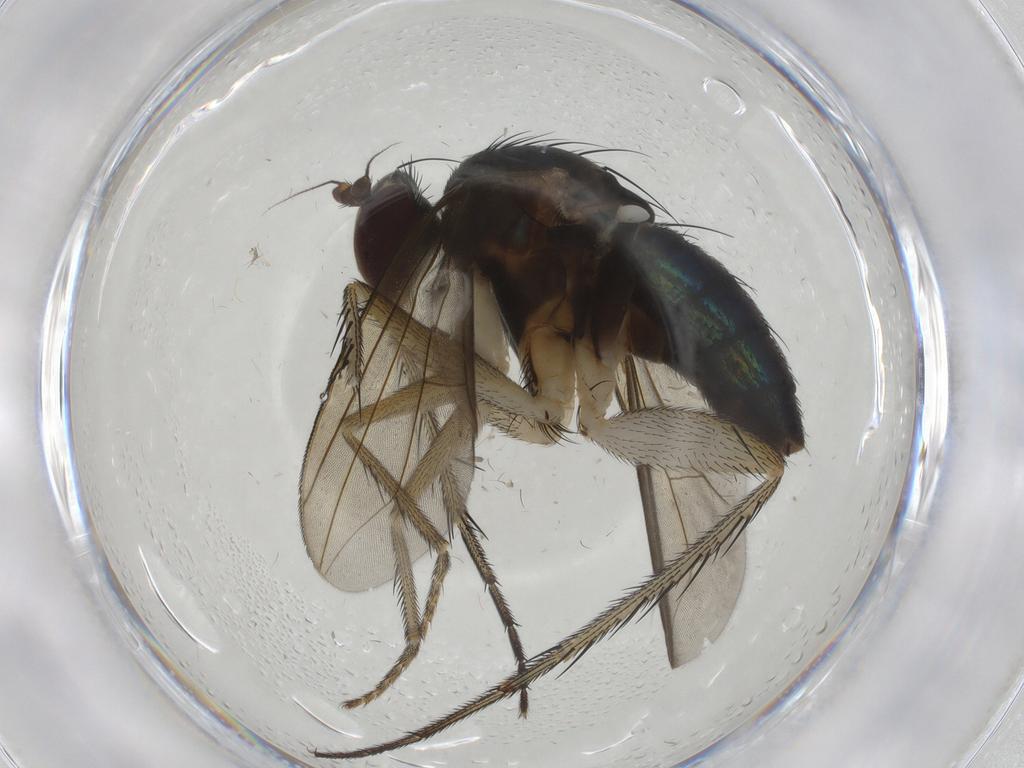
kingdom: Animalia
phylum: Arthropoda
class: Insecta
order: Diptera
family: Dolichopodidae
